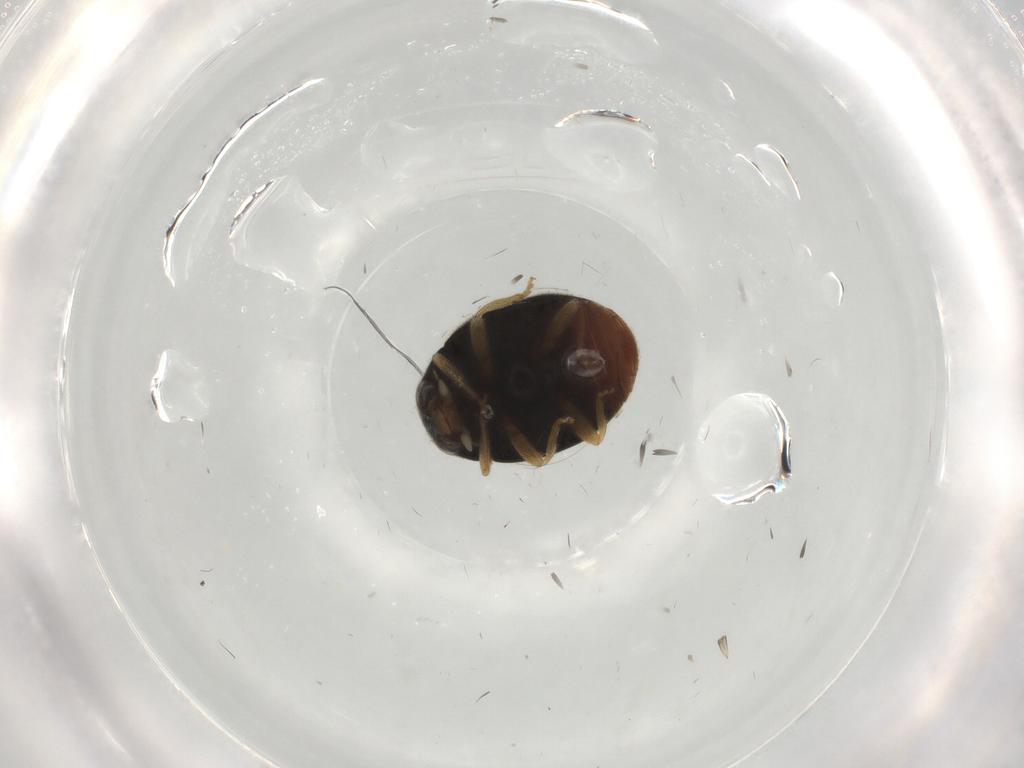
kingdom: Animalia
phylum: Arthropoda
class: Insecta
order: Coleoptera
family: Coccinellidae
